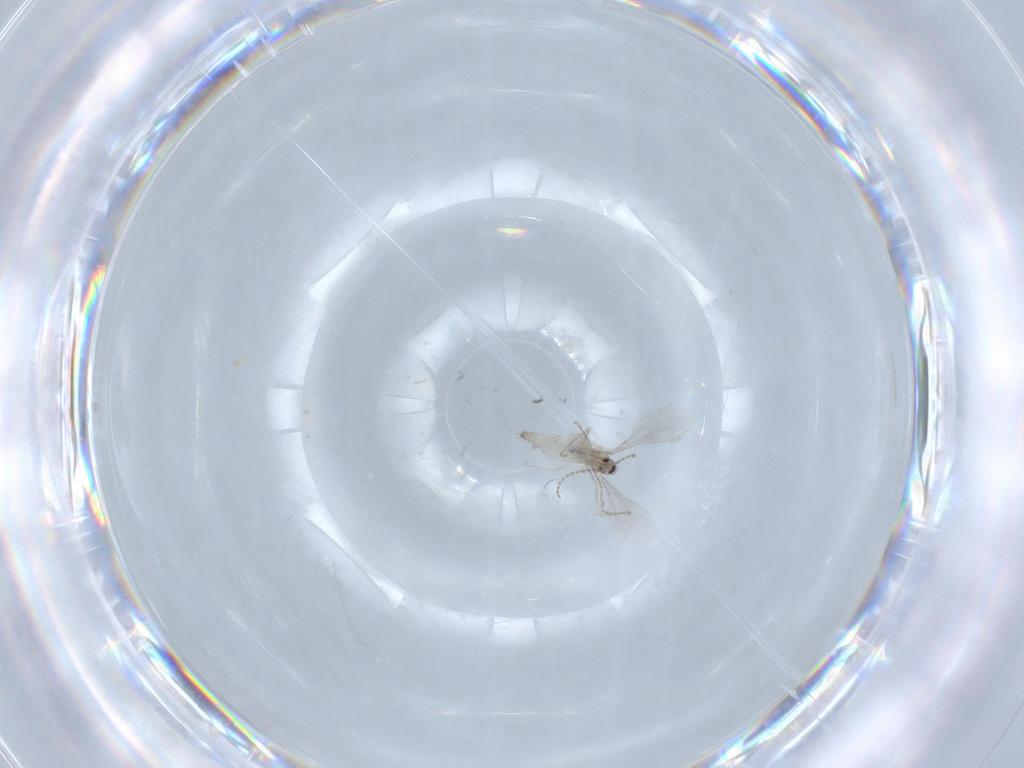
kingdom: Animalia
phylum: Arthropoda
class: Insecta
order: Diptera
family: Cecidomyiidae
